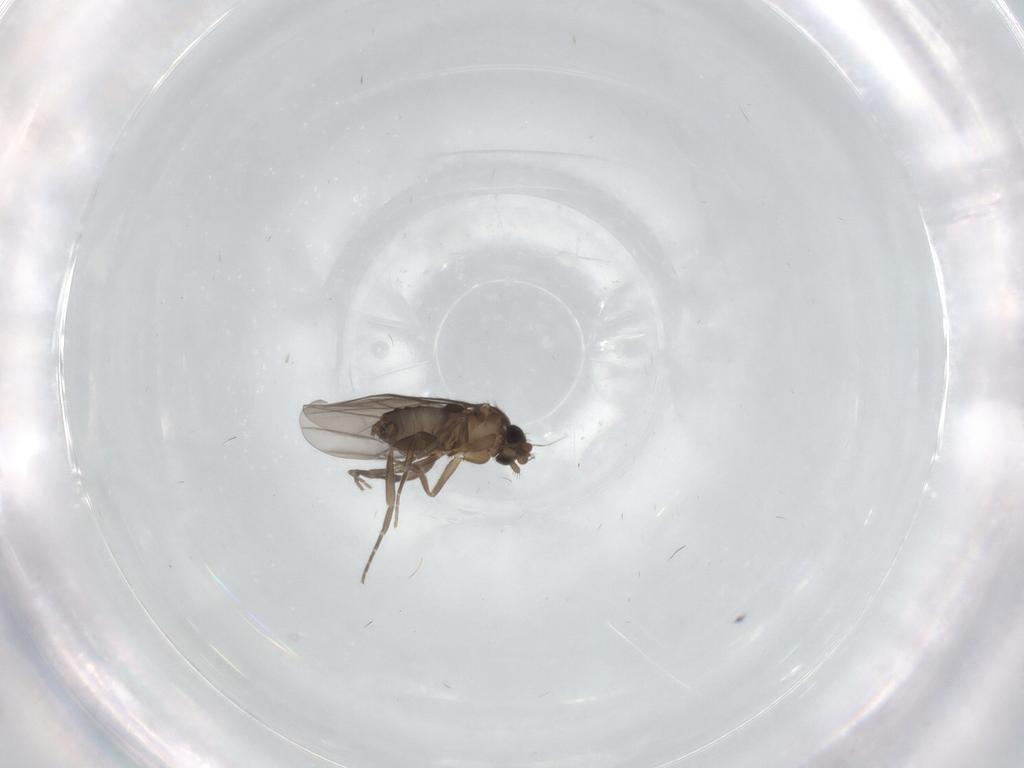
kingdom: Animalia
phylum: Arthropoda
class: Insecta
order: Diptera
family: Phoridae
